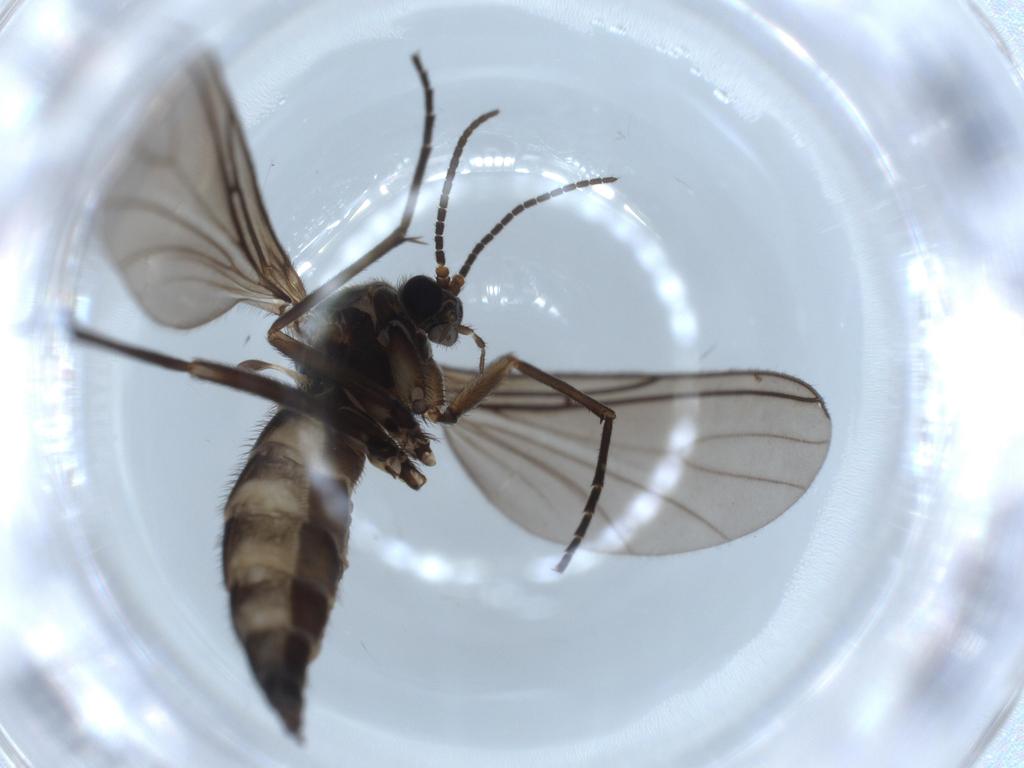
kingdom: Animalia
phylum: Arthropoda
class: Insecta
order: Diptera
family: Sciaridae
